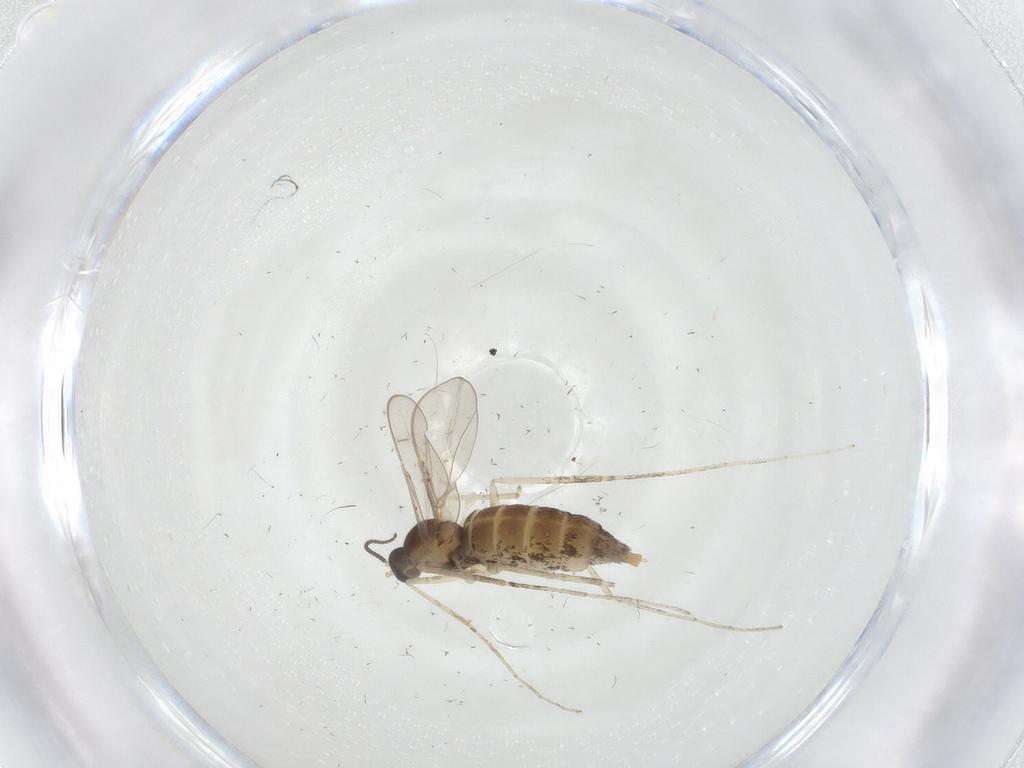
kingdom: Animalia
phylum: Arthropoda
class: Insecta
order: Diptera
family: Cecidomyiidae
